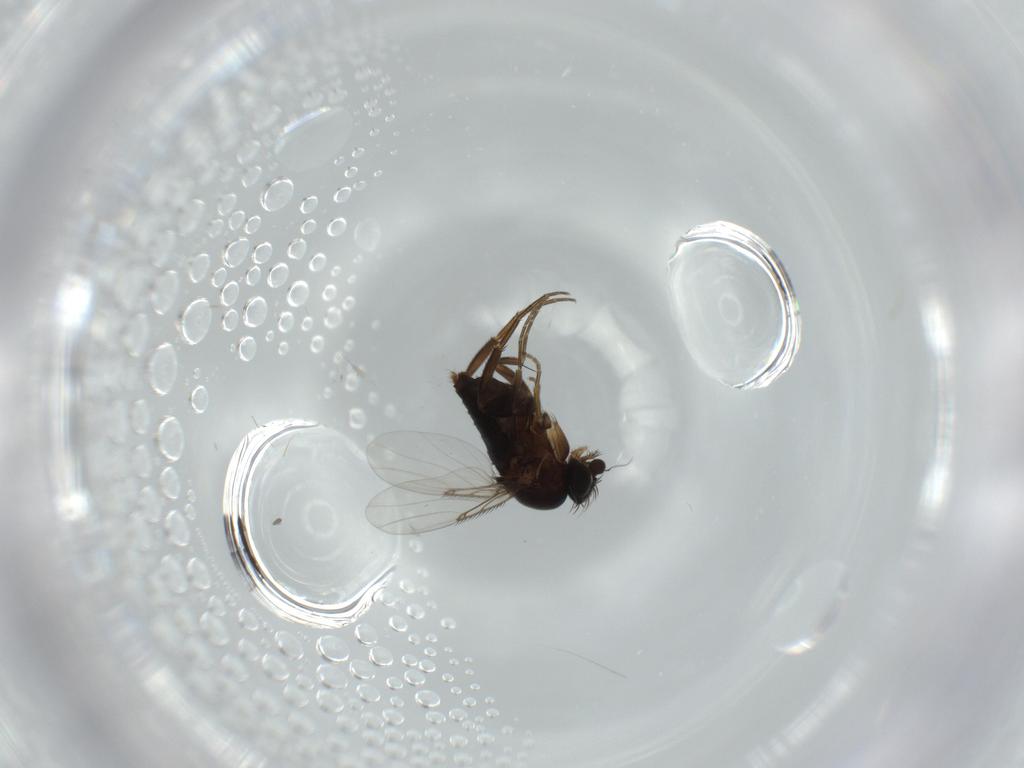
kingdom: Animalia
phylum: Arthropoda
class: Insecta
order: Diptera
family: Phoridae
